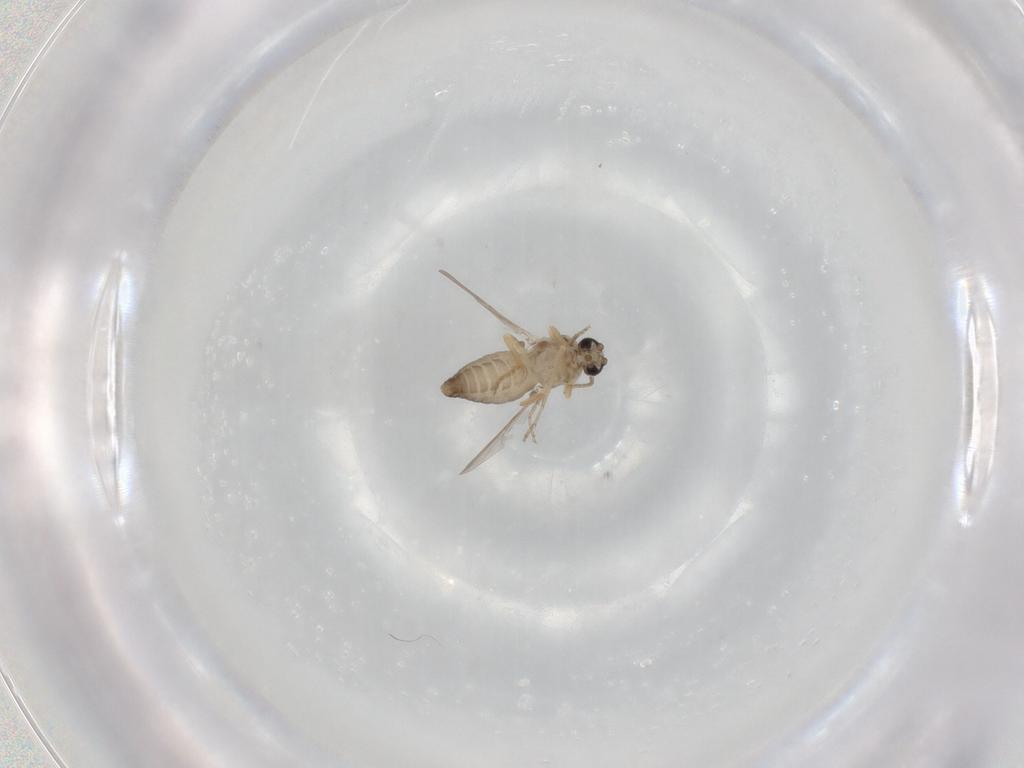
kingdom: Animalia
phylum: Arthropoda
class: Insecta
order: Diptera
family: Ceratopogonidae
